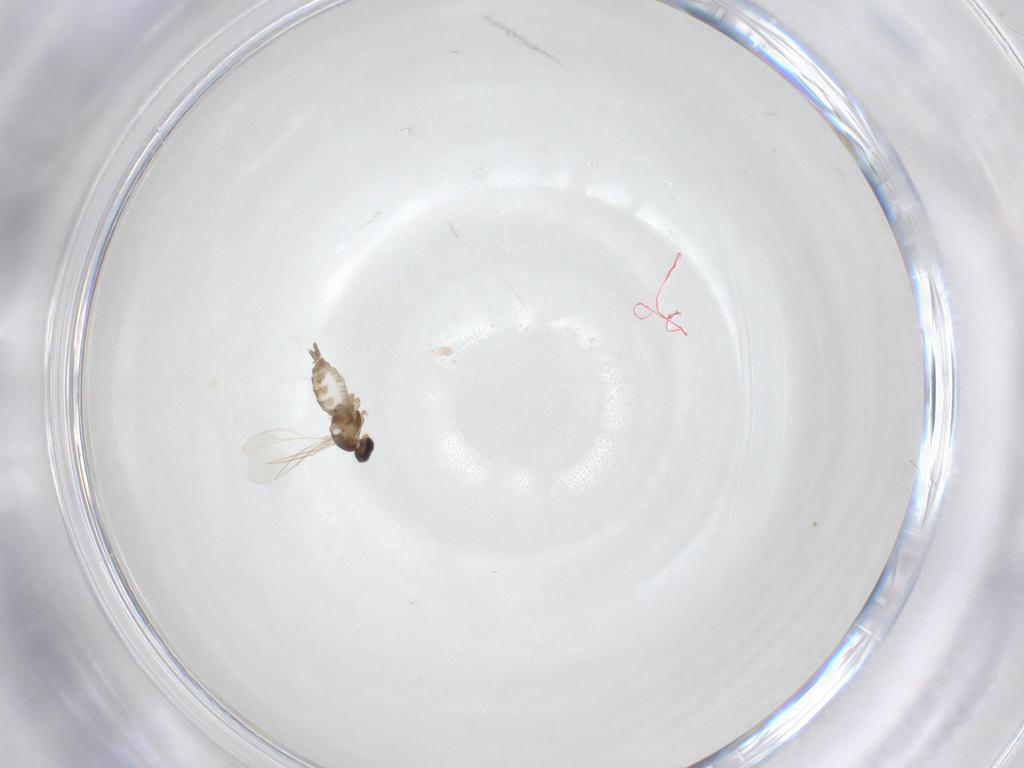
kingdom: Animalia
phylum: Arthropoda
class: Insecta
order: Diptera
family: Cecidomyiidae
